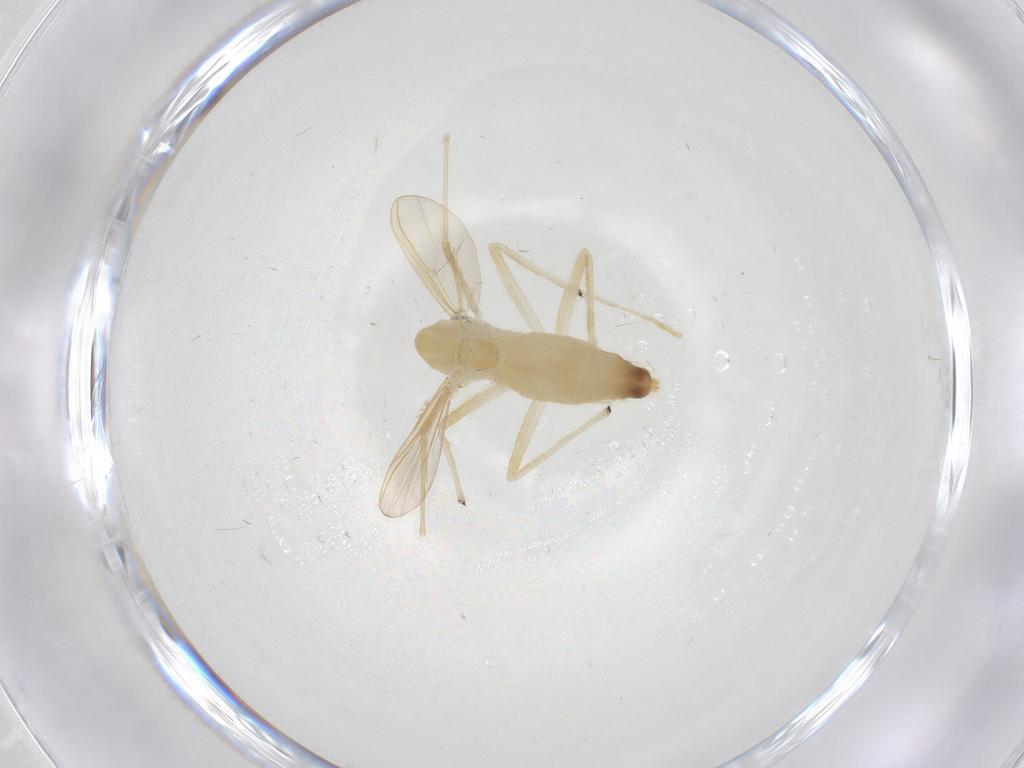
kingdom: Animalia
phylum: Arthropoda
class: Insecta
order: Diptera
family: Chironomidae
